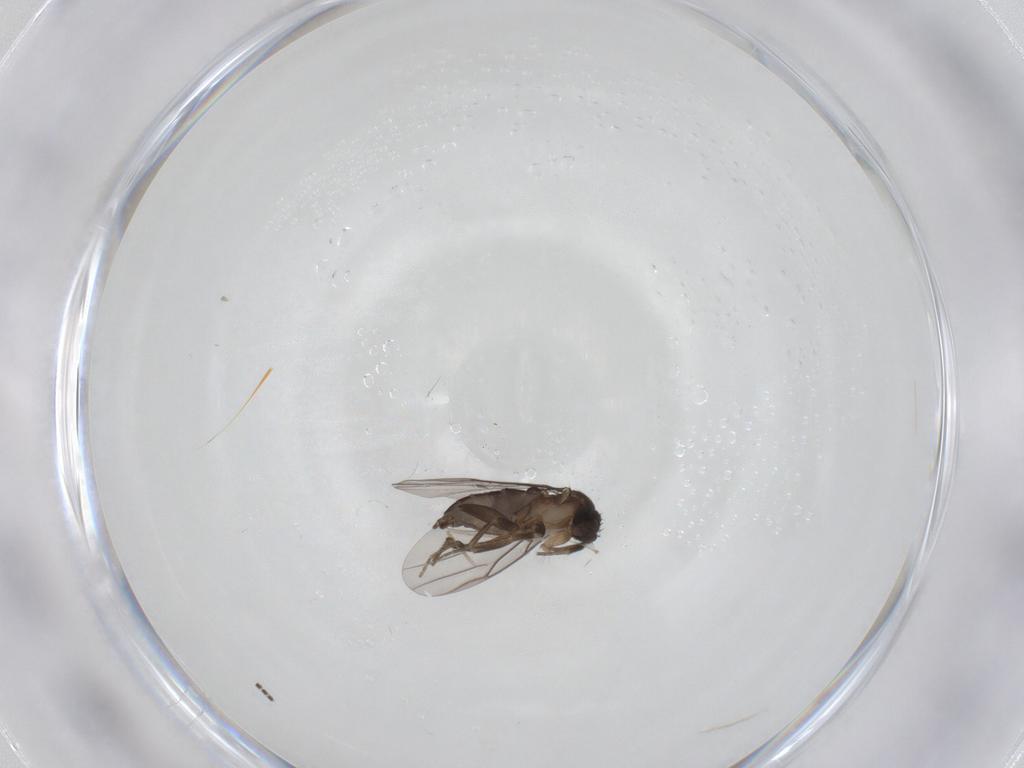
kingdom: Animalia
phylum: Arthropoda
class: Insecta
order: Diptera
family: Cecidomyiidae
